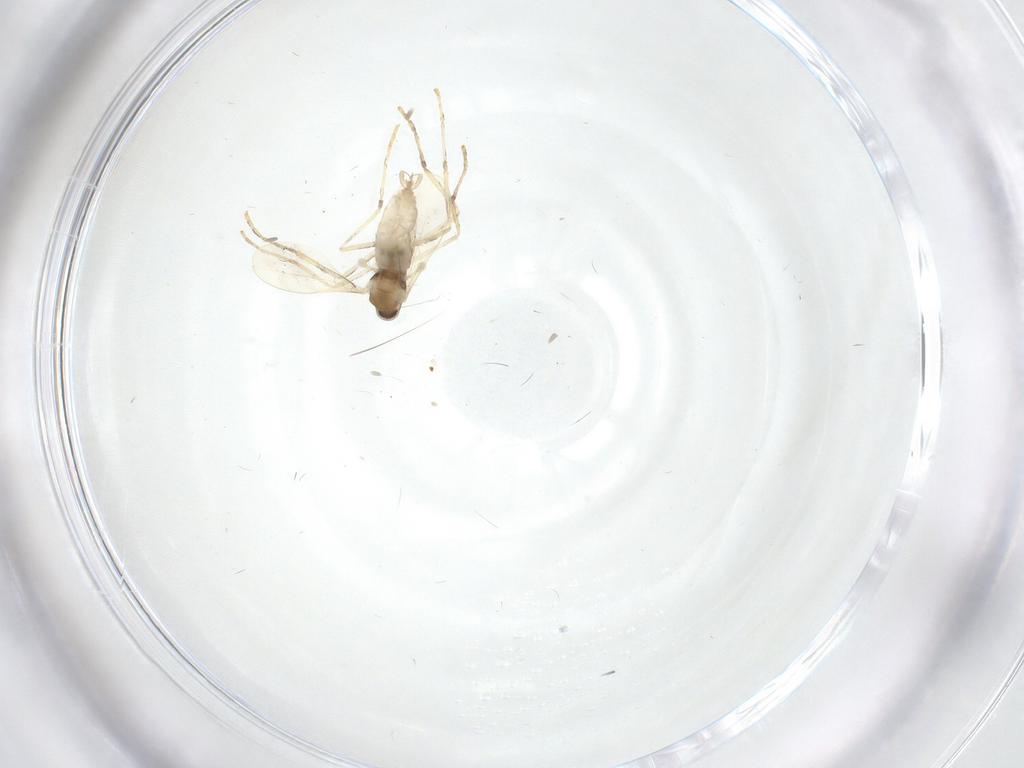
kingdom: Animalia
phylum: Arthropoda
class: Insecta
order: Diptera
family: Cecidomyiidae
